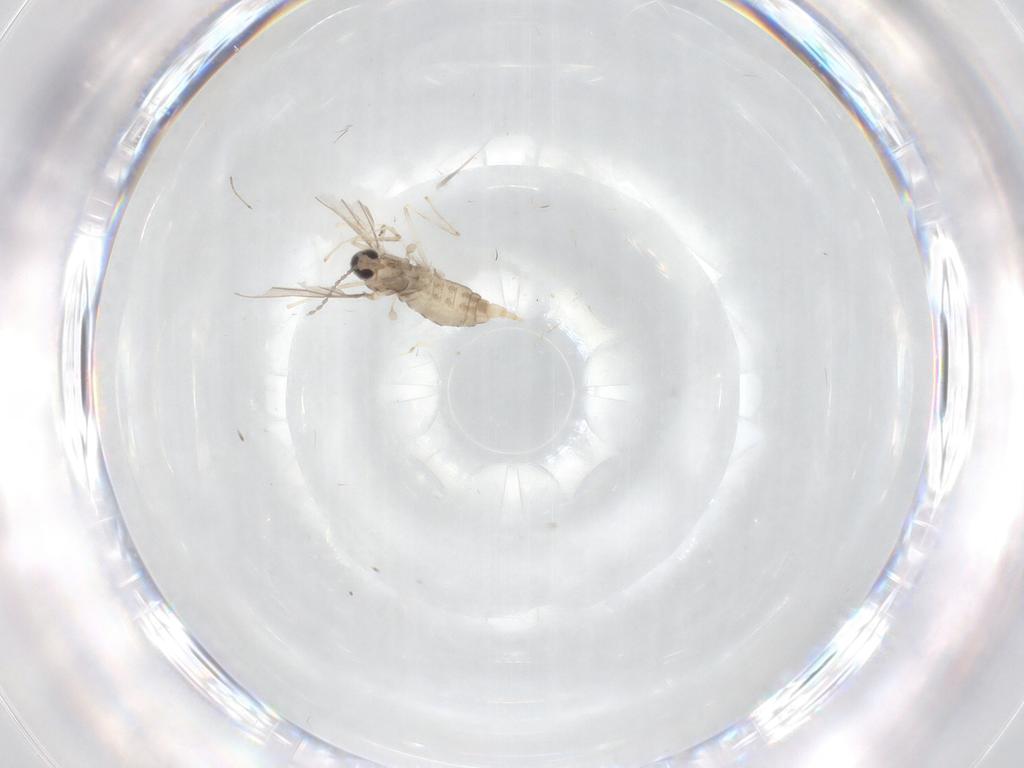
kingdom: Animalia
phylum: Arthropoda
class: Insecta
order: Diptera
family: Cecidomyiidae
